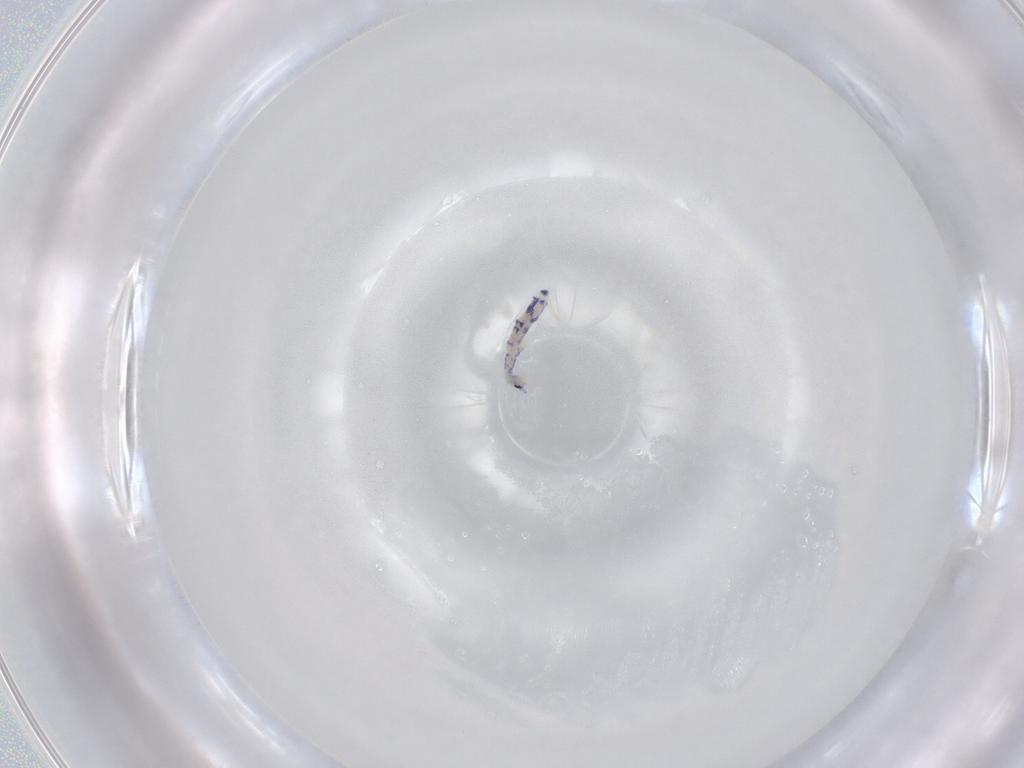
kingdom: Animalia
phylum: Arthropoda
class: Collembola
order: Entomobryomorpha
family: Entomobryidae
